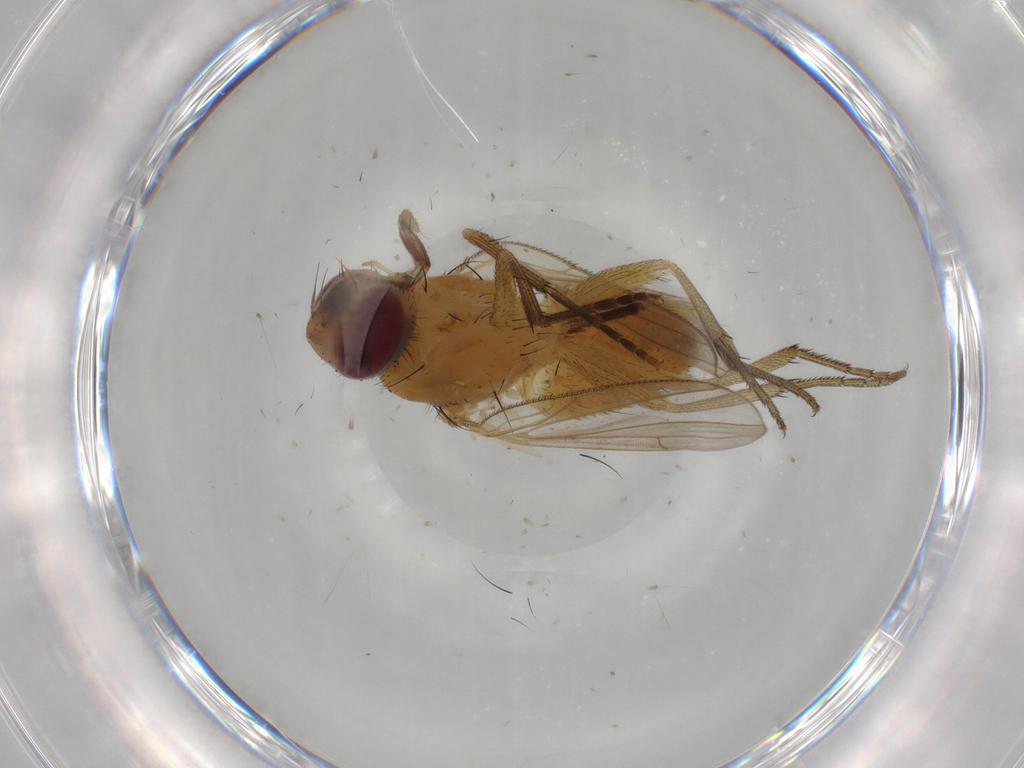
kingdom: Animalia
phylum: Arthropoda
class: Insecta
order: Diptera
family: Muscidae
